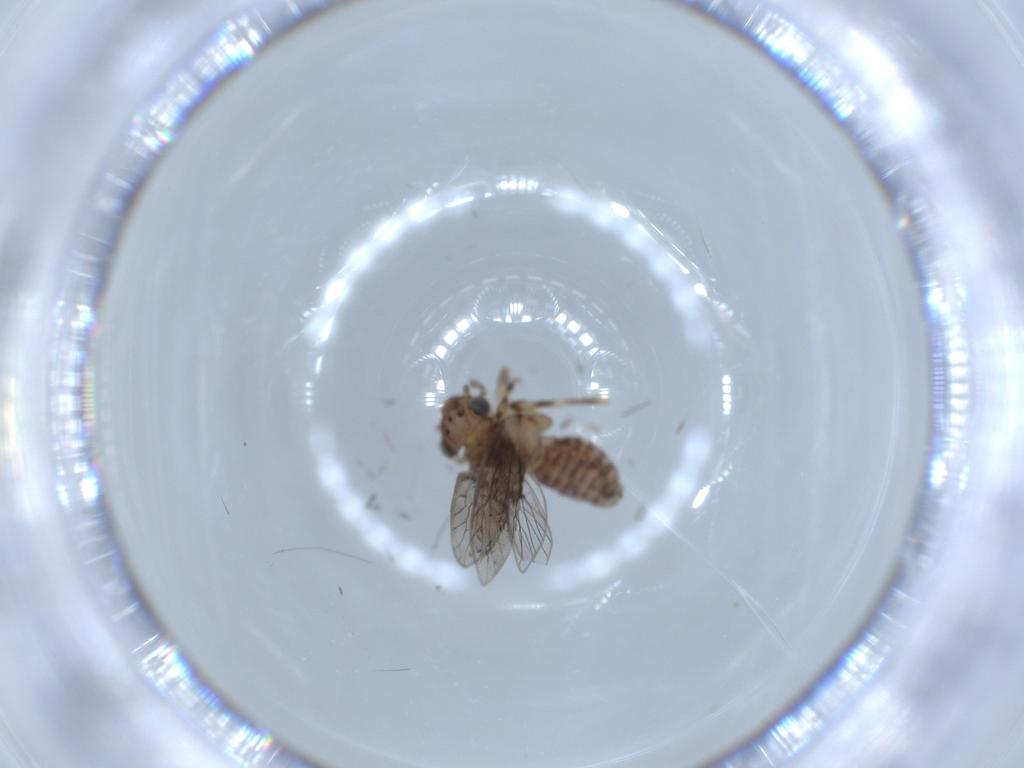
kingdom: Animalia
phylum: Arthropoda
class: Insecta
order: Psocodea
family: Lepidopsocidae
